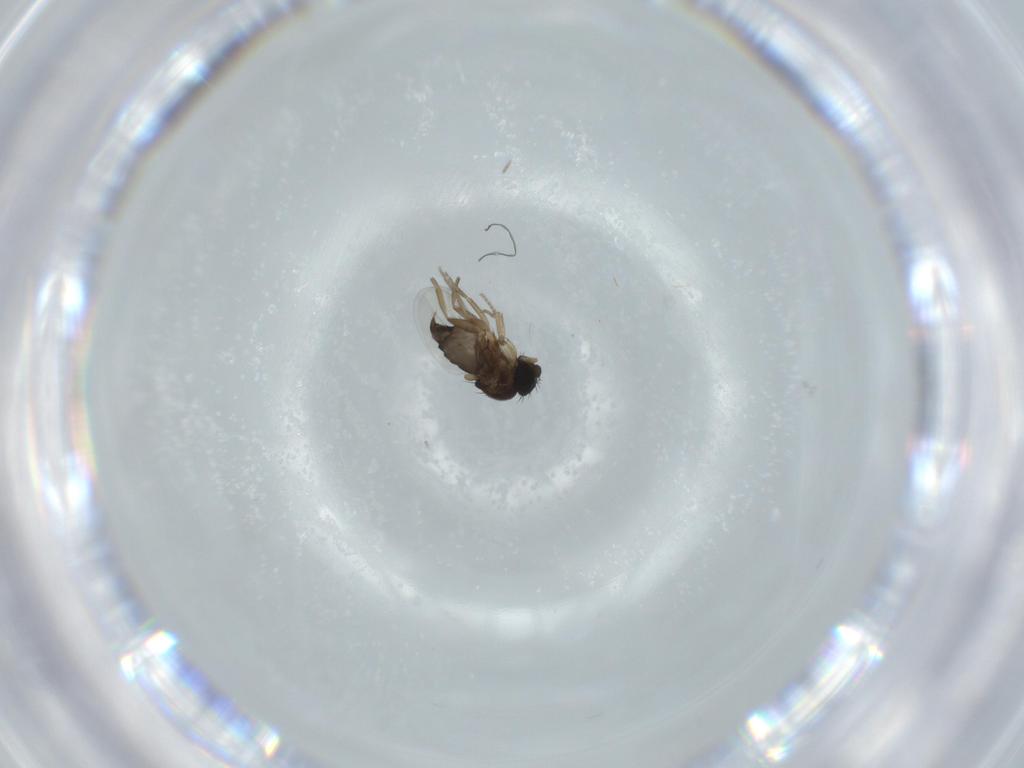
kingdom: Animalia
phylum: Arthropoda
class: Insecta
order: Diptera
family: Phoridae
